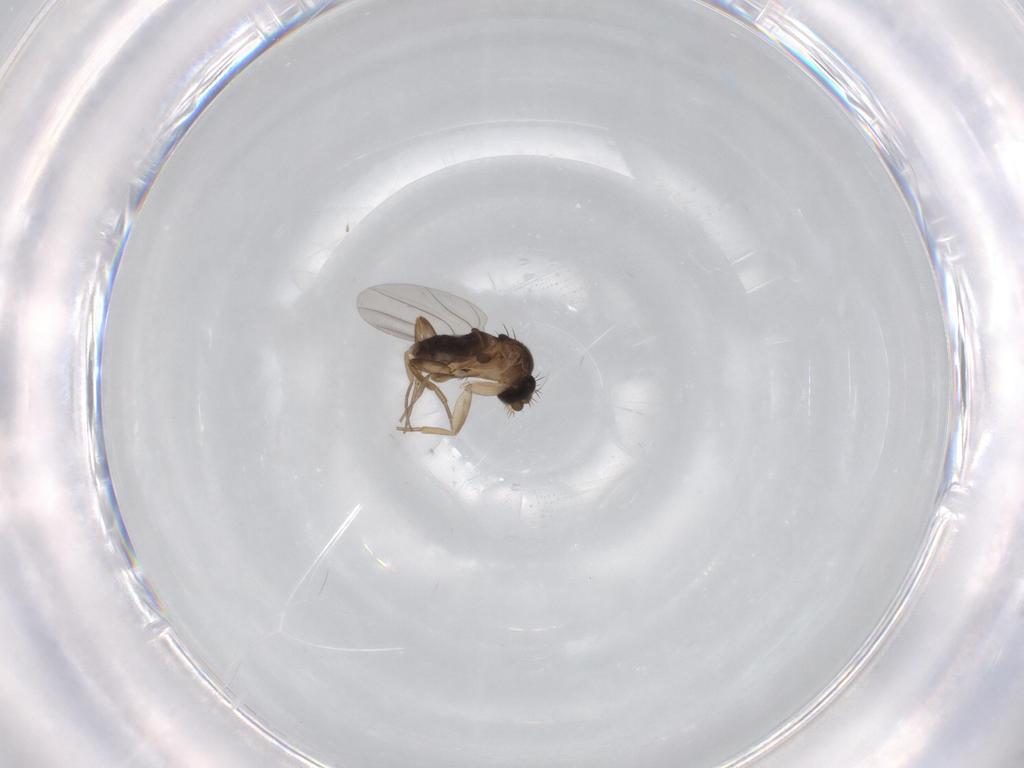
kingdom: Animalia
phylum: Arthropoda
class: Insecta
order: Diptera
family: Phoridae
